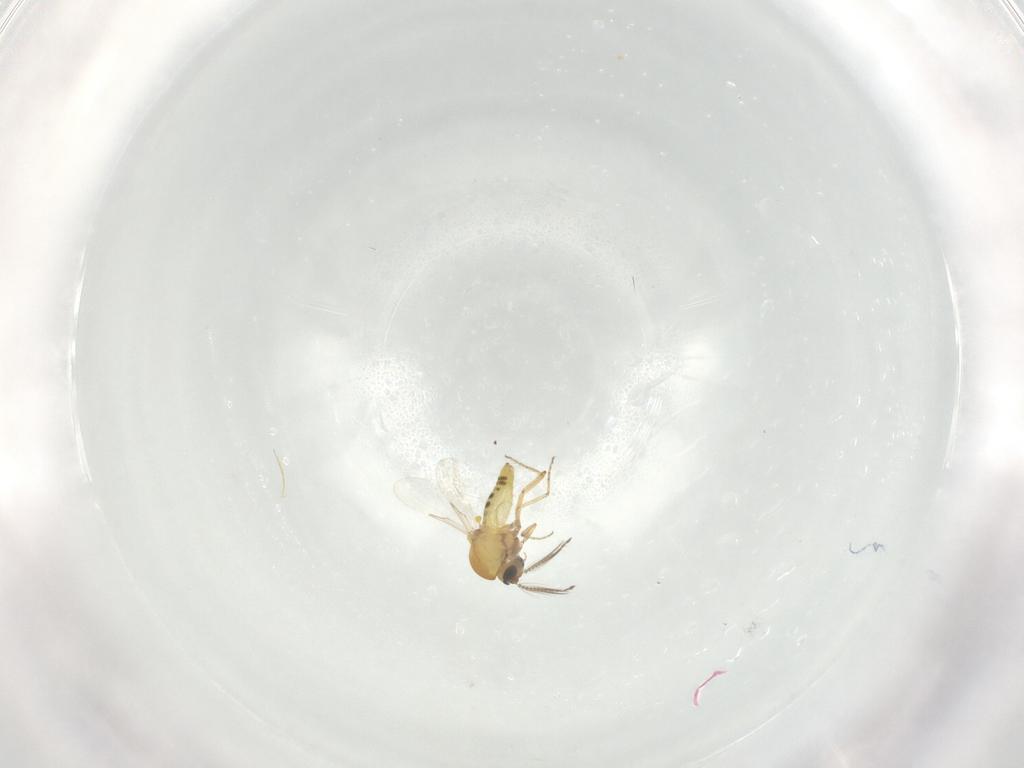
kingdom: Animalia
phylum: Arthropoda
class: Insecta
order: Diptera
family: Ceratopogonidae
